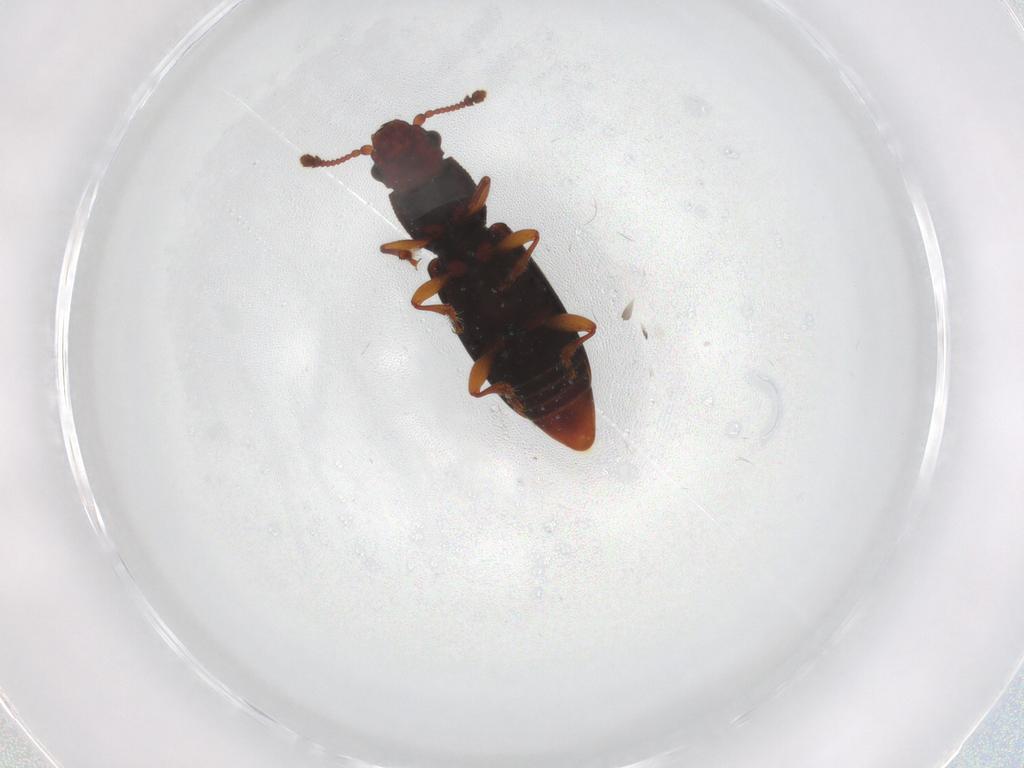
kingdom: Animalia
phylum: Arthropoda
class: Insecta
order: Coleoptera
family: Monotomidae
